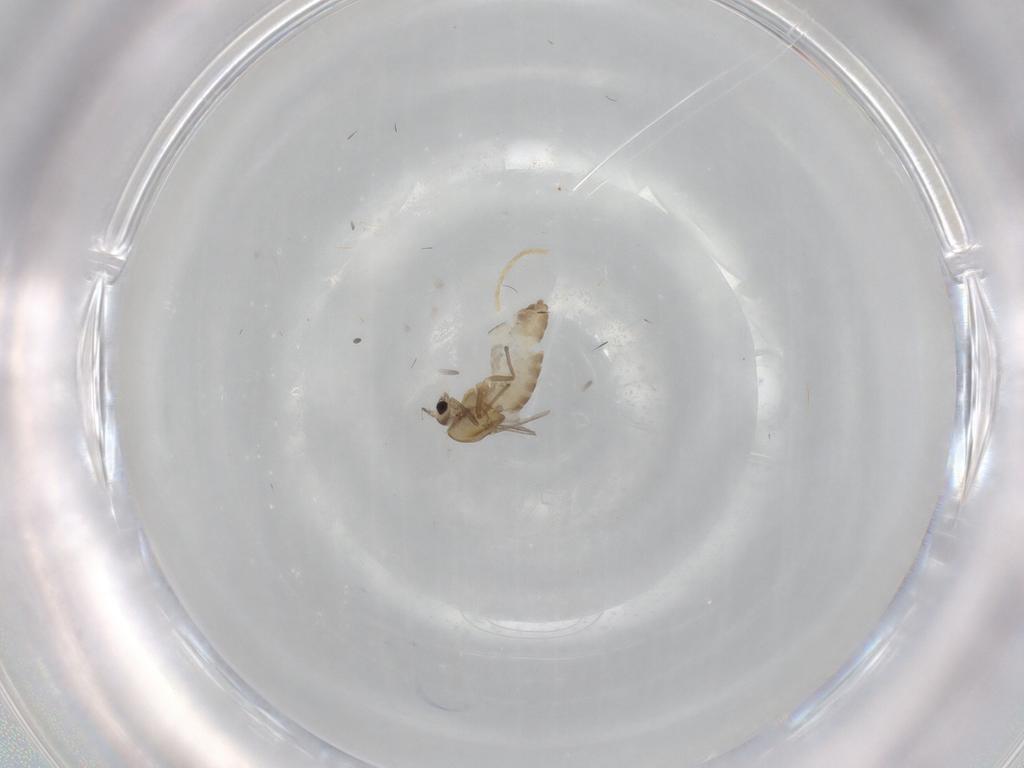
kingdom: Animalia
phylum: Arthropoda
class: Insecta
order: Diptera
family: Chironomidae
